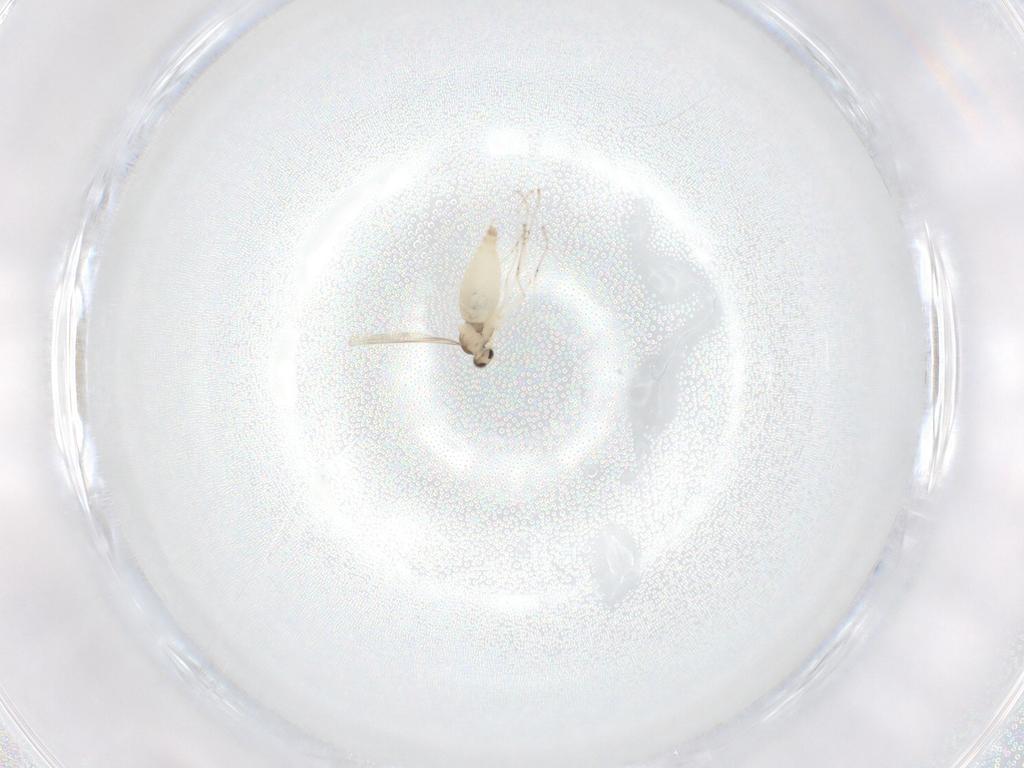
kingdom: Animalia
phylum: Arthropoda
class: Insecta
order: Diptera
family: Cecidomyiidae
